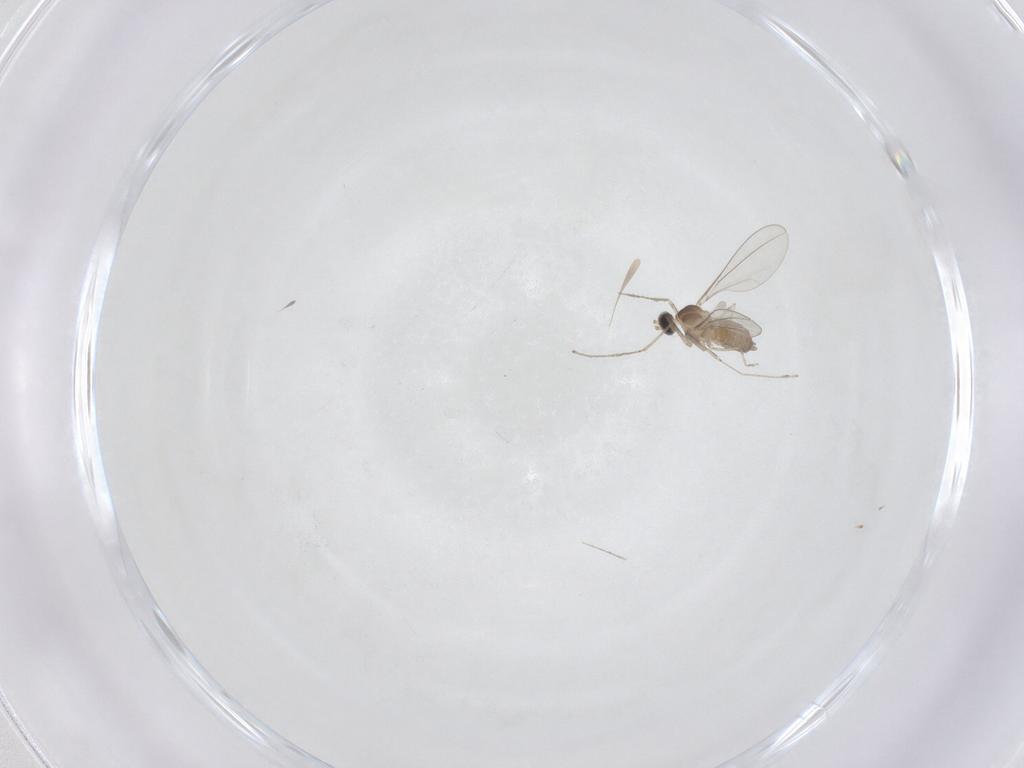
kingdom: Animalia
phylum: Arthropoda
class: Insecta
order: Diptera
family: Cecidomyiidae
